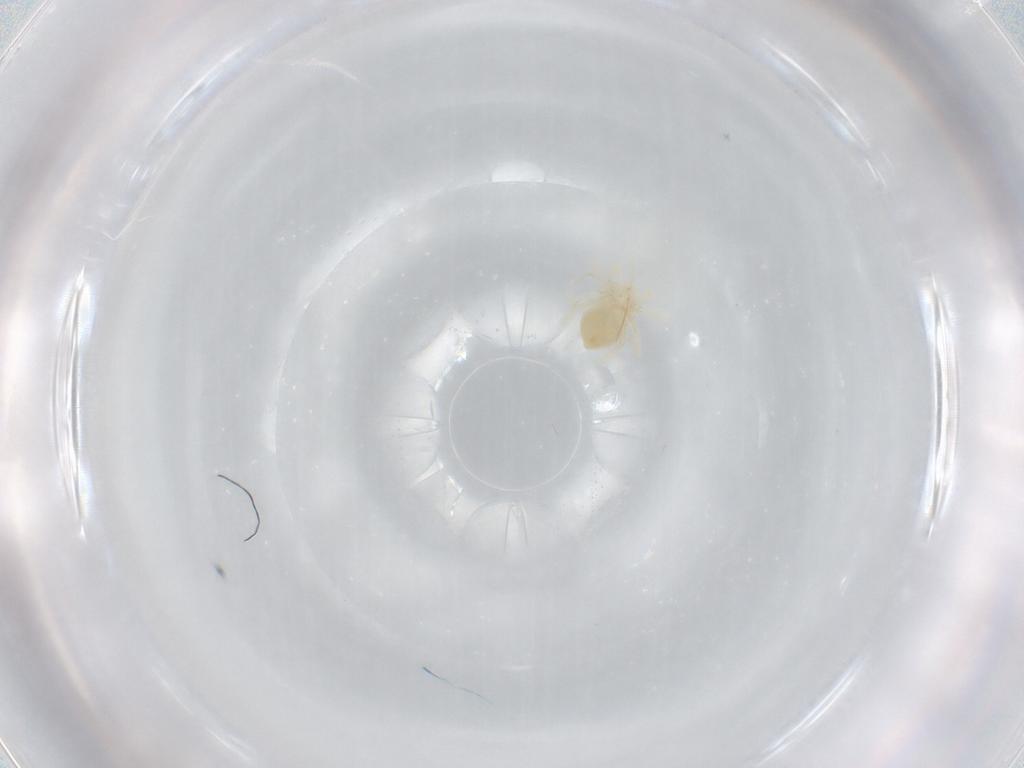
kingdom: Animalia
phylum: Arthropoda
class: Arachnida
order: Trombidiformes
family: Anystidae
